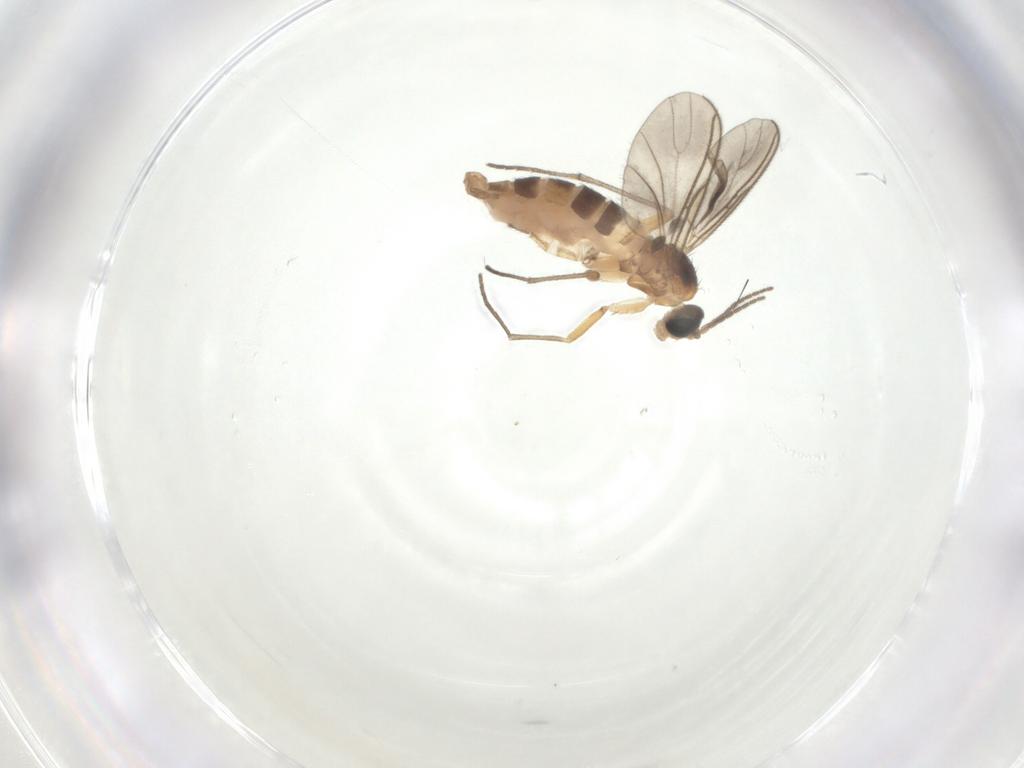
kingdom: Animalia
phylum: Arthropoda
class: Insecta
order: Diptera
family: Sciaridae
